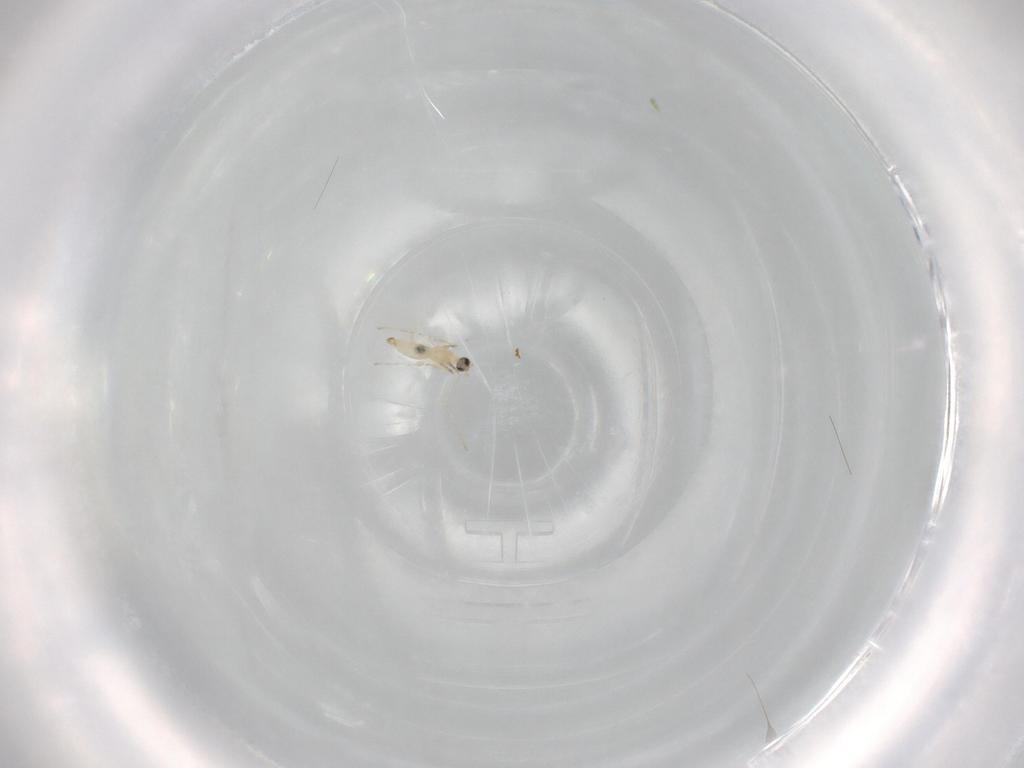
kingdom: Animalia
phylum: Arthropoda
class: Insecta
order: Diptera
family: Cecidomyiidae
